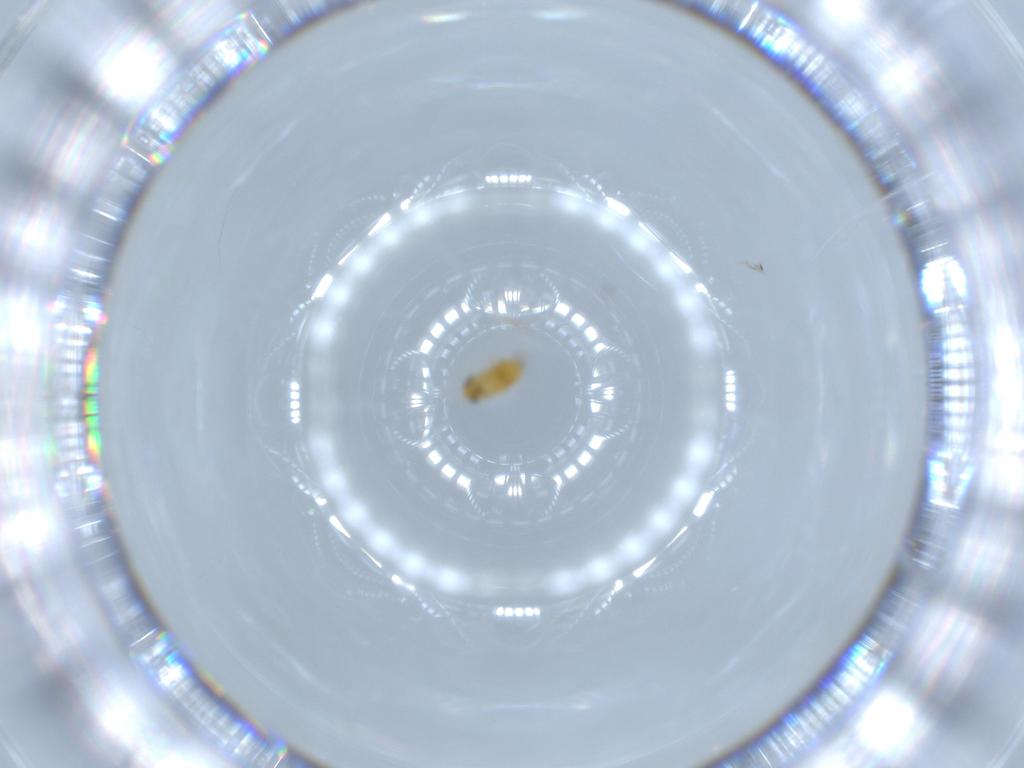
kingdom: Animalia
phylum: Arthropoda
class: Insecta
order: Hymenoptera
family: Signiphoridae
